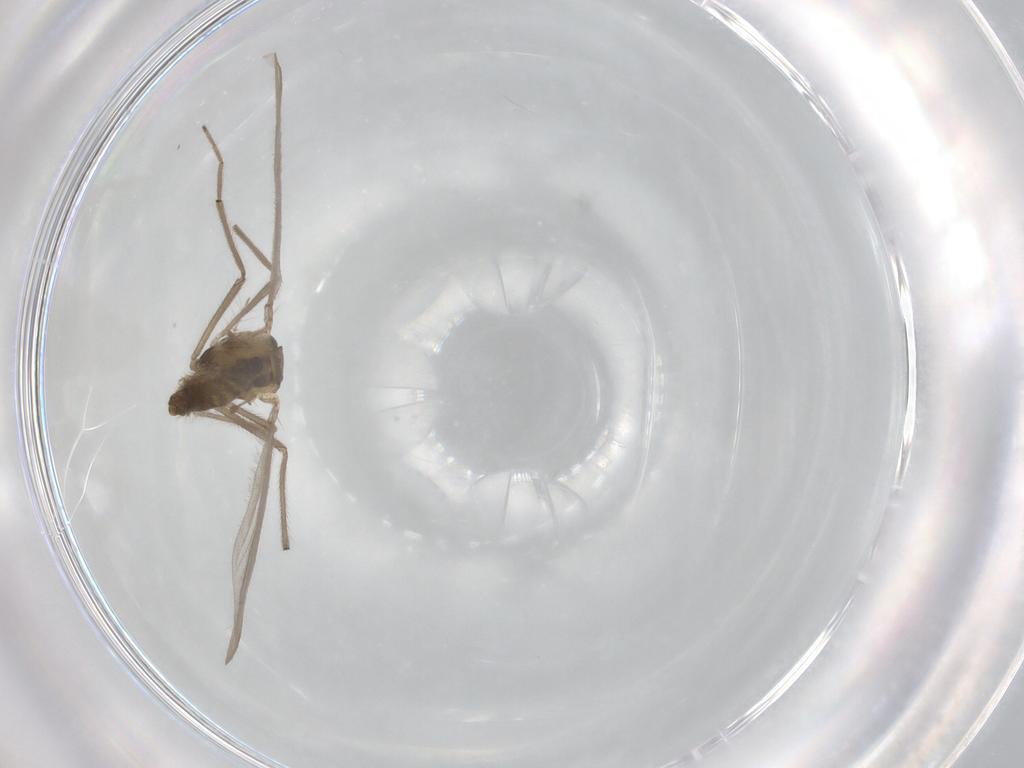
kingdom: Animalia
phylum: Arthropoda
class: Insecta
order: Diptera
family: Chironomidae
